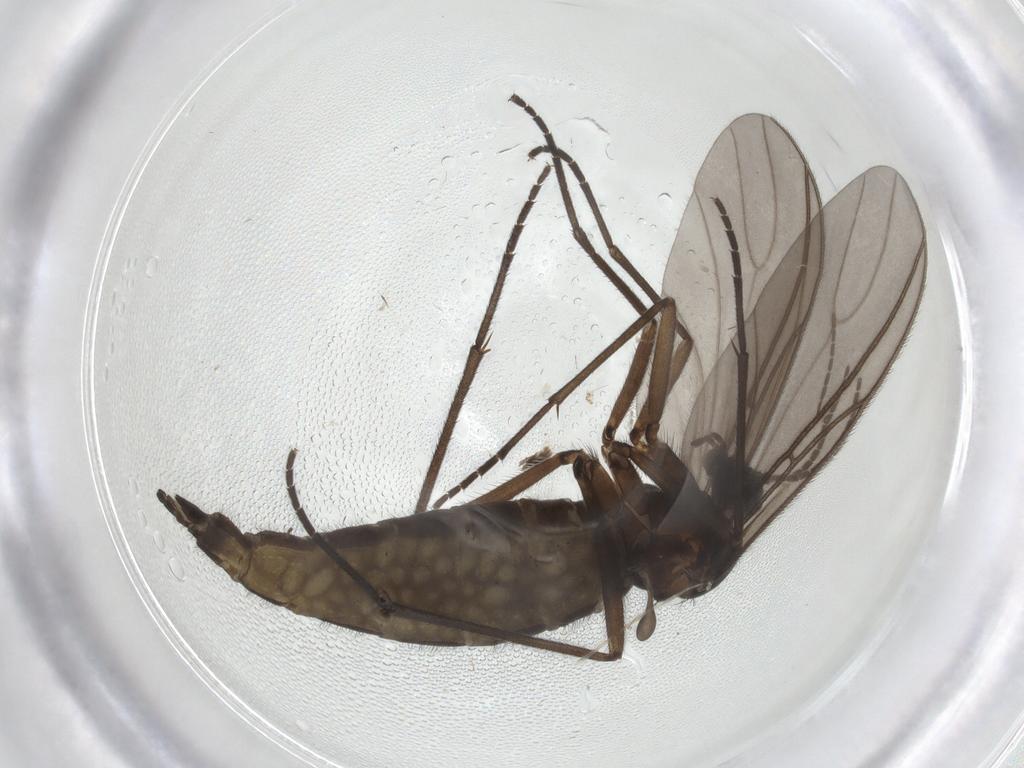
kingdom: Animalia
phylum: Arthropoda
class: Insecta
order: Diptera
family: Sciaridae
